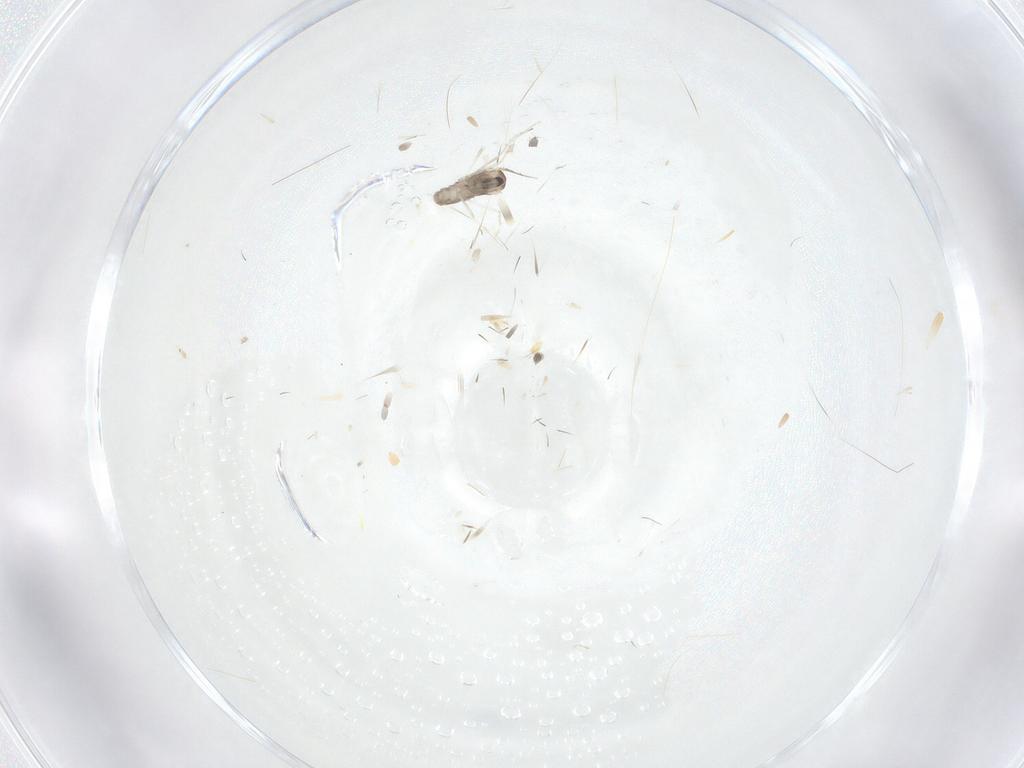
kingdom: Animalia
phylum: Arthropoda
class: Insecta
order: Diptera
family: Cecidomyiidae
